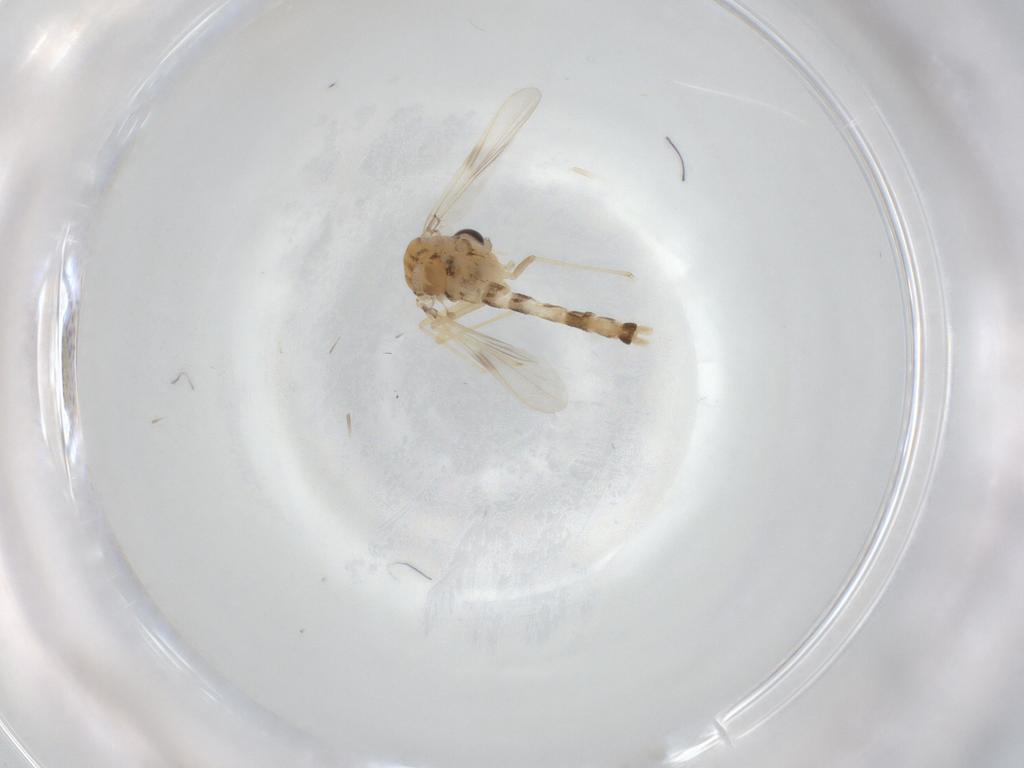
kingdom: Animalia
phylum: Arthropoda
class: Insecta
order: Diptera
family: Chironomidae
